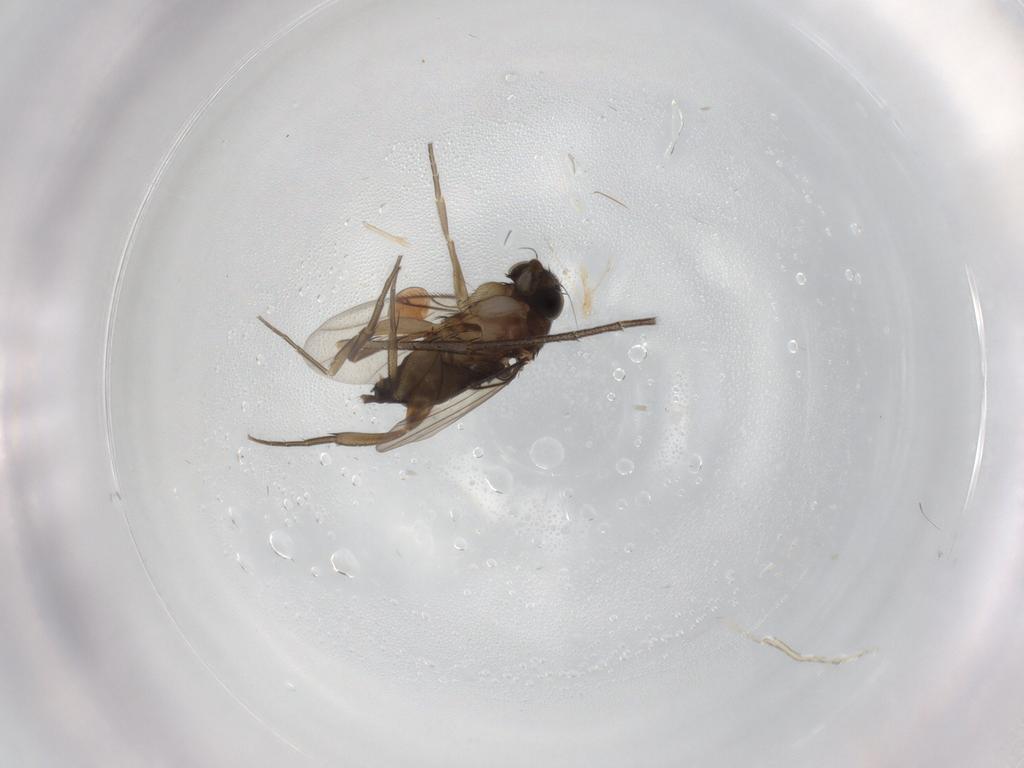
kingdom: Animalia
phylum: Arthropoda
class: Insecta
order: Diptera
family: Mycetophilidae
